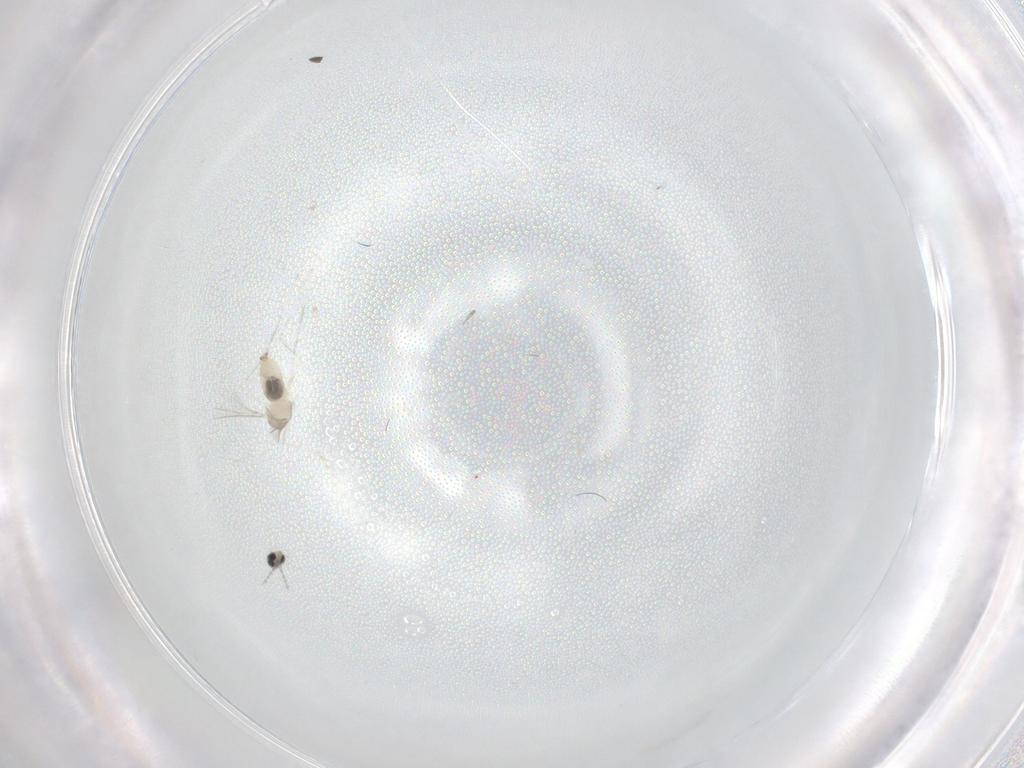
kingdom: Animalia
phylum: Arthropoda
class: Insecta
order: Diptera
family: Cecidomyiidae
